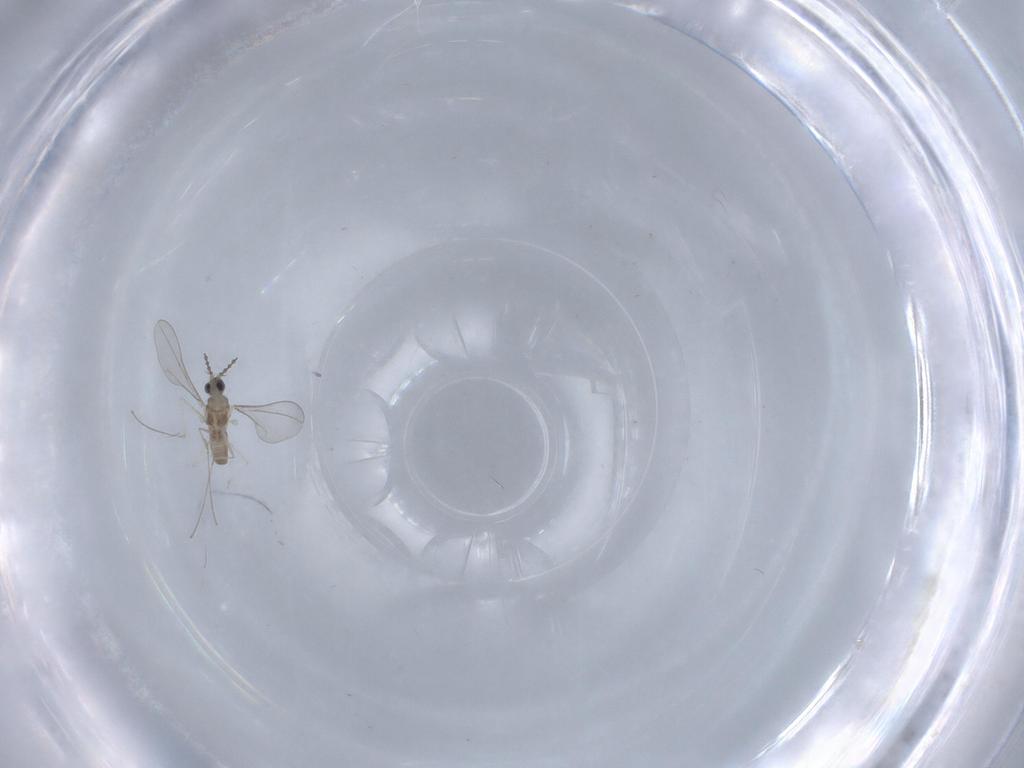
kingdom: Animalia
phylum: Arthropoda
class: Insecta
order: Diptera
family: Cecidomyiidae
